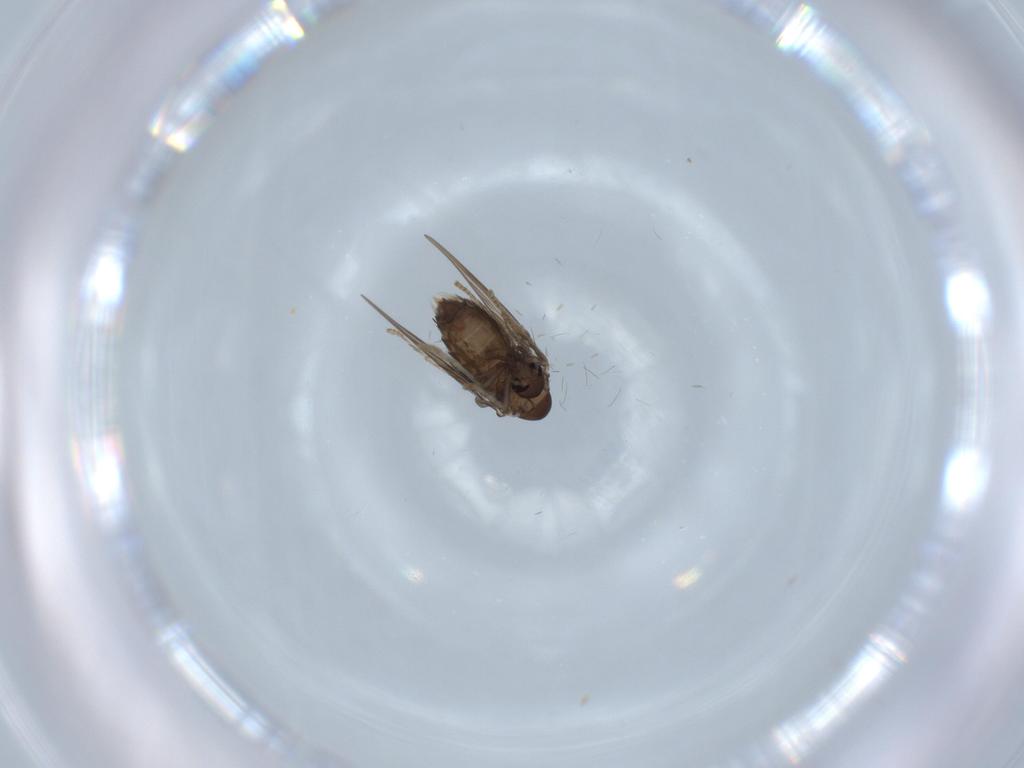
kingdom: Animalia
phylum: Arthropoda
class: Insecta
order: Diptera
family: Psychodidae
